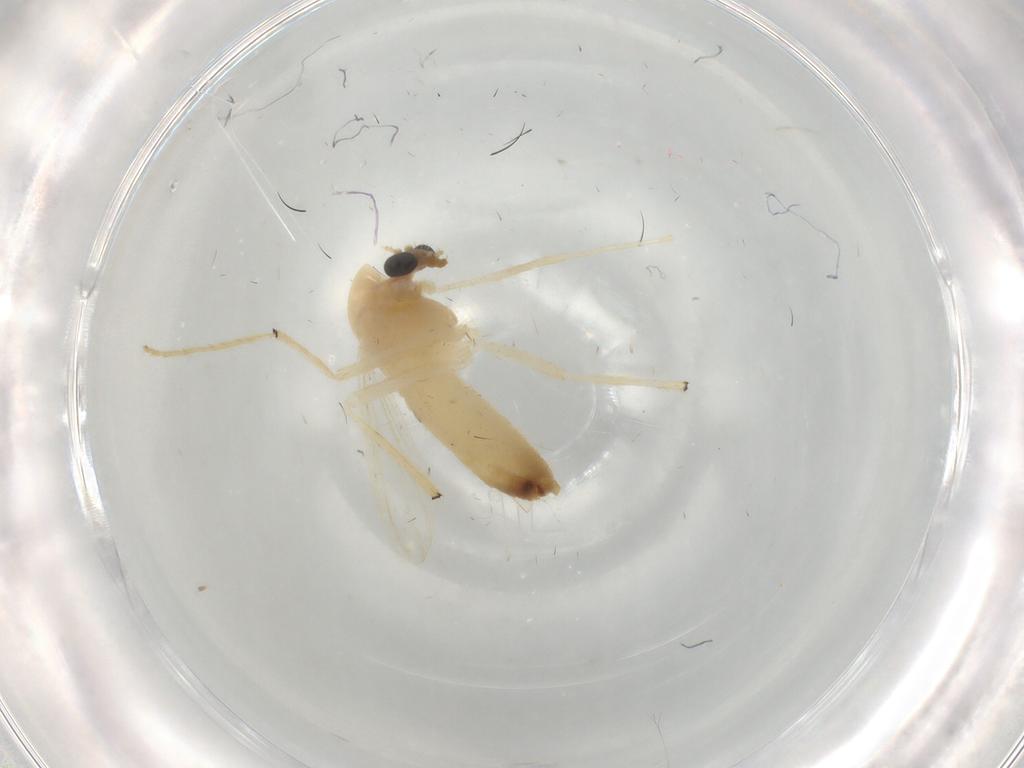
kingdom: Animalia
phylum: Arthropoda
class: Insecta
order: Diptera
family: Chironomidae
